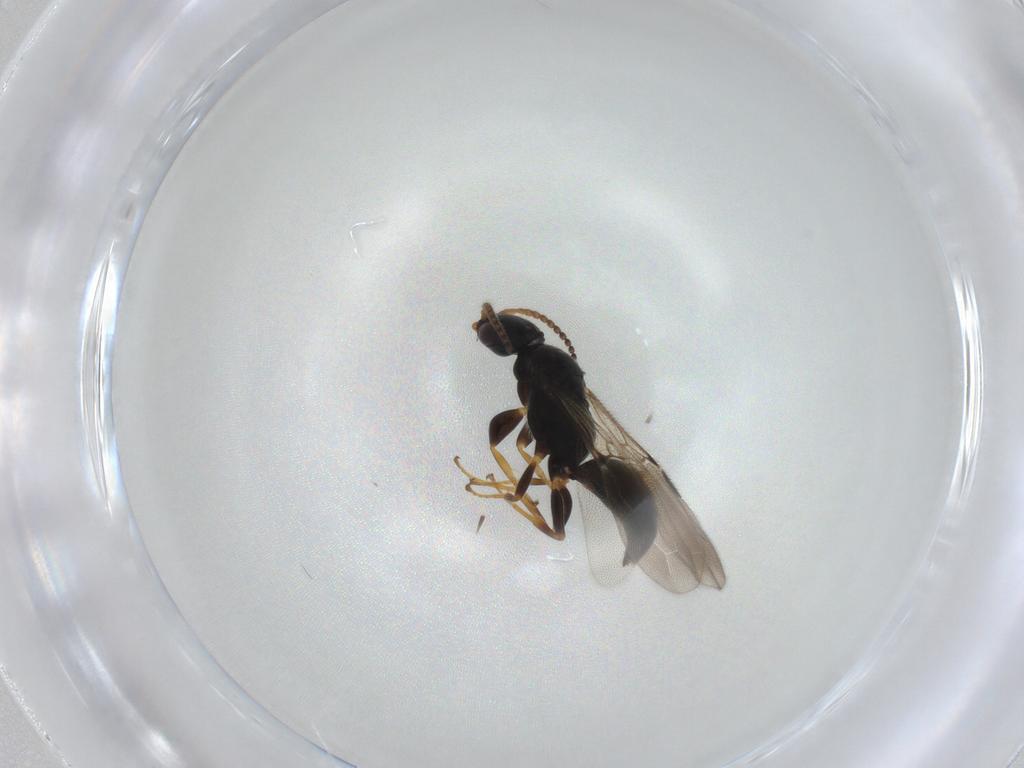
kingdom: Animalia
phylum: Arthropoda
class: Insecta
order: Hymenoptera
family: Bethylidae
